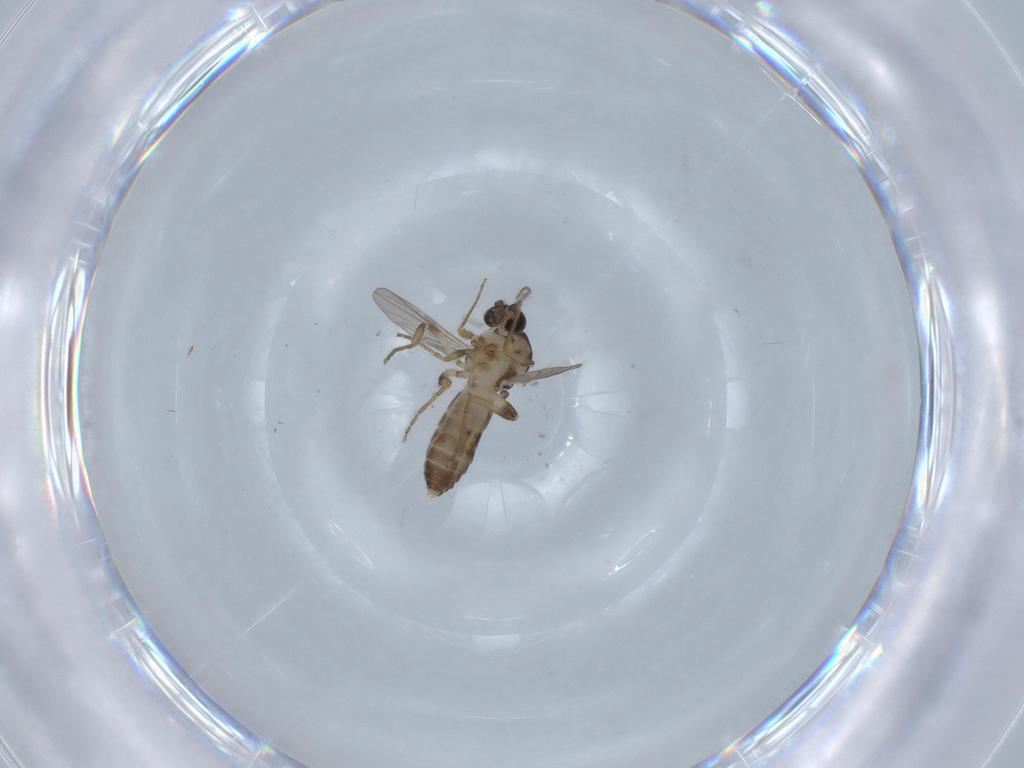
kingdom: Animalia
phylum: Arthropoda
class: Insecta
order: Diptera
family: Ceratopogonidae
